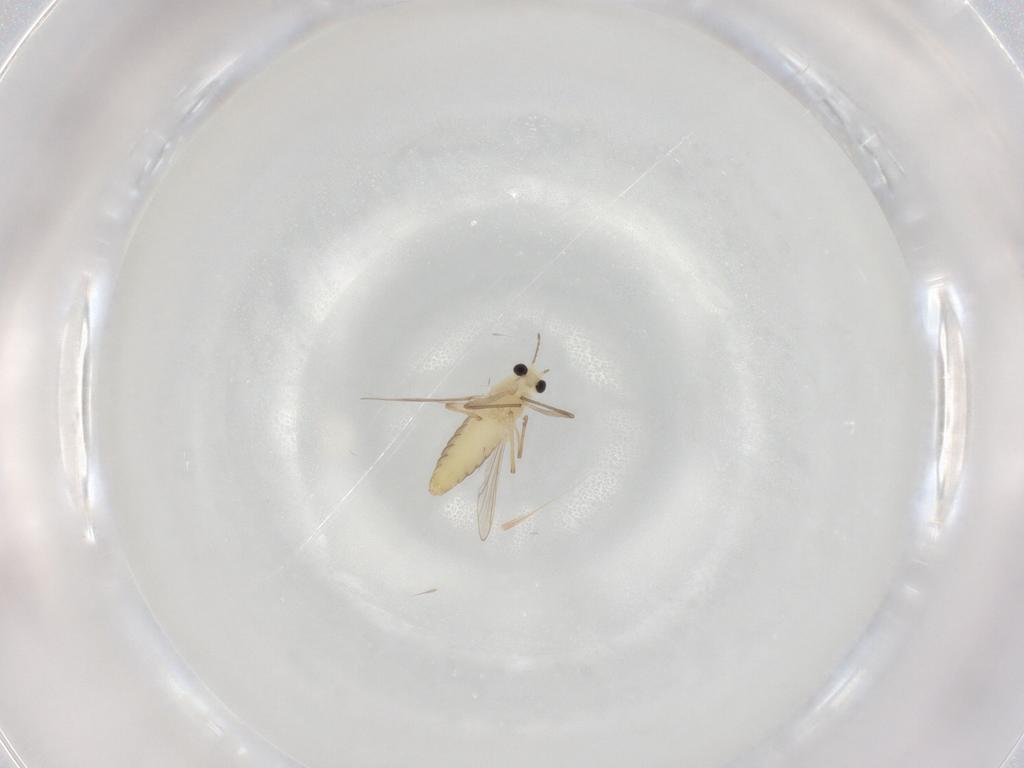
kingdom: Animalia
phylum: Arthropoda
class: Insecta
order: Diptera
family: Chironomidae
